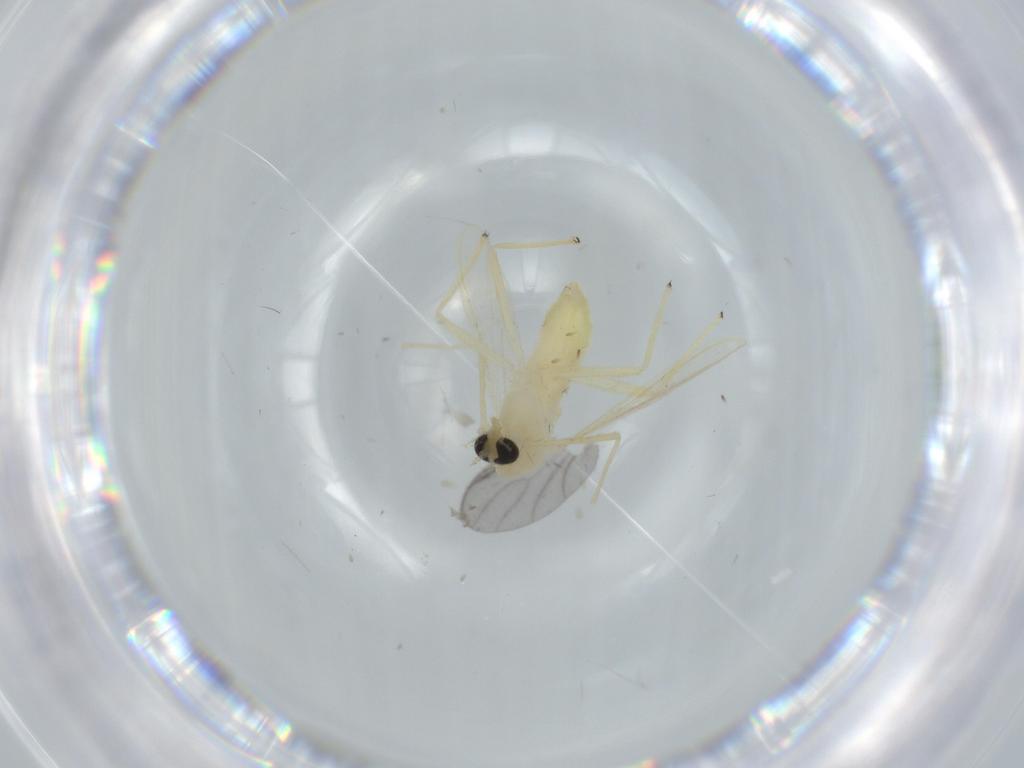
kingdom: Animalia
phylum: Arthropoda
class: Insecta
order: Diptera
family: Chironomidae
